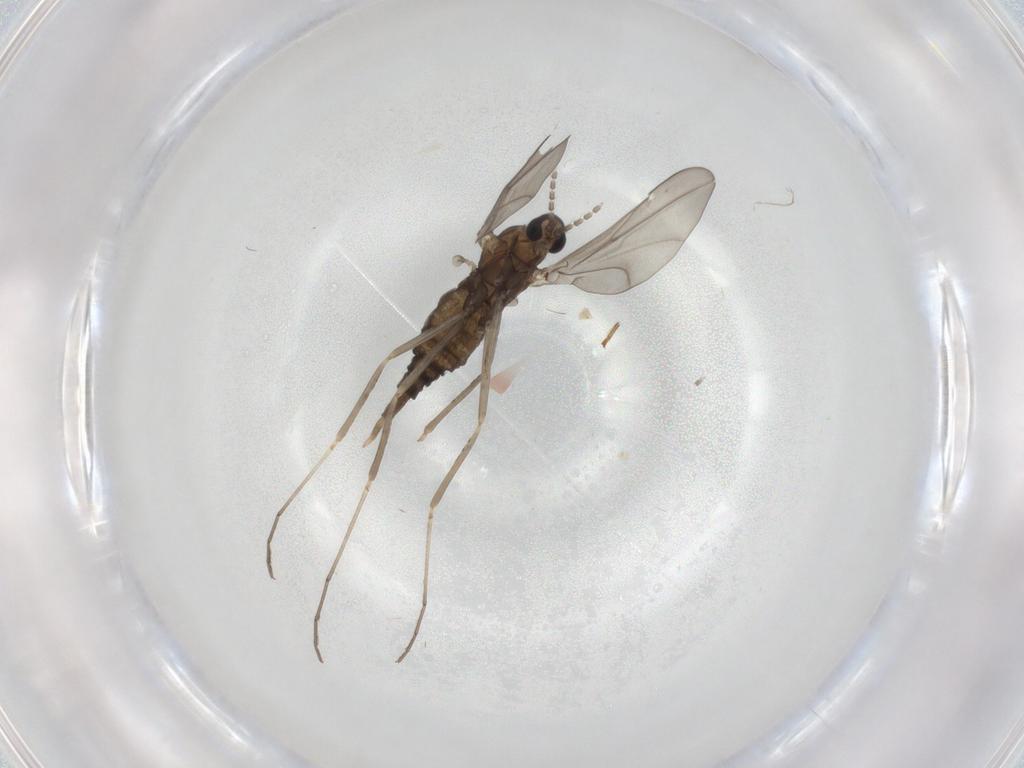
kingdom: Animalia
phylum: Arthropoda
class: Insecta
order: Diptera
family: Cecidomyiidae
